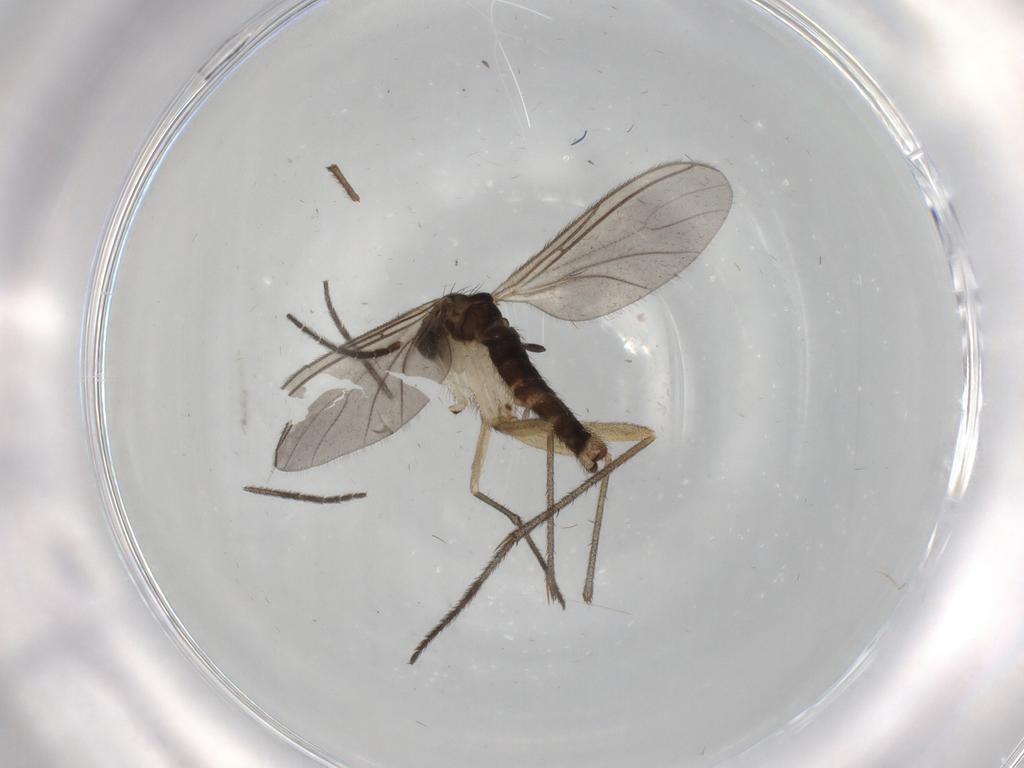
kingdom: Animalia
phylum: Arthropoda
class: Insecta
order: Diptera
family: Sciaridae
